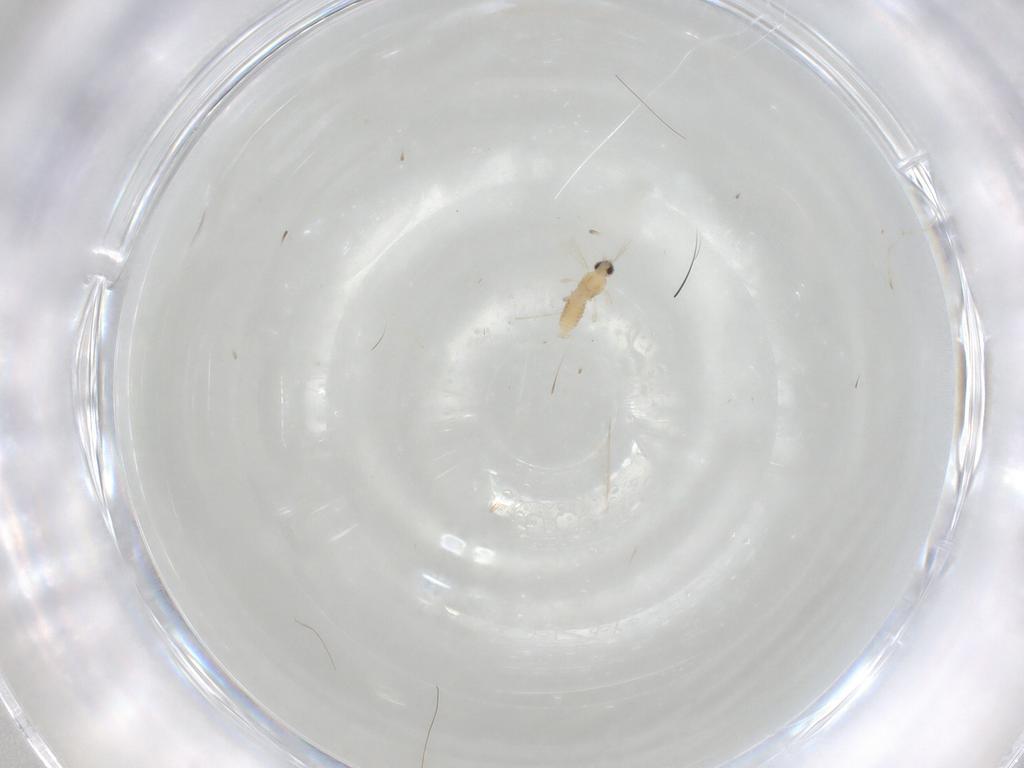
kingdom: Animalia
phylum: Arthropoda
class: Insecta
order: Diptera
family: Cecidomyiidae
